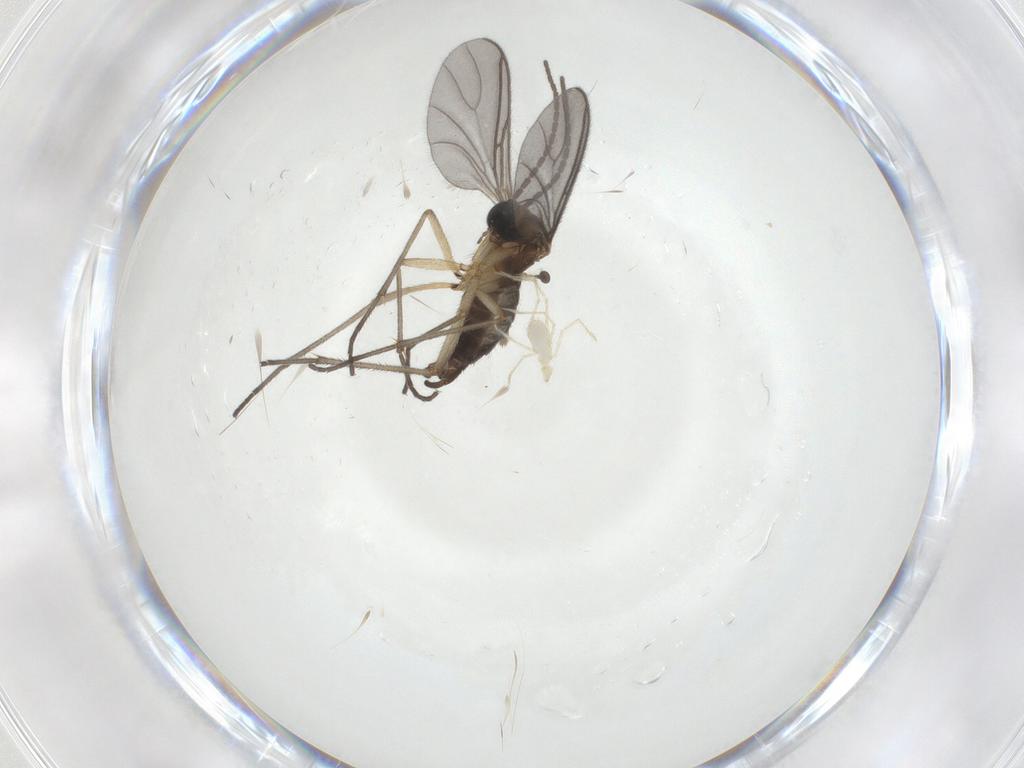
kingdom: Animalia
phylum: Arthropoda
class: Insecta
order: Diptera
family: Sciaridae
